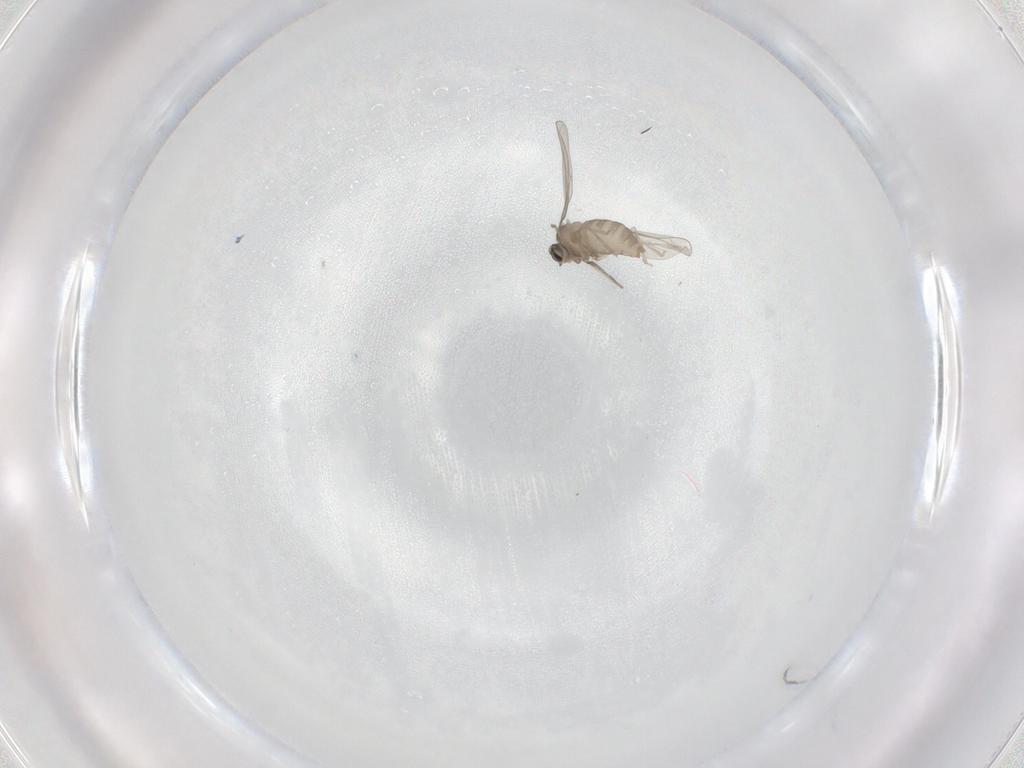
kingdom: Animalia
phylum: Arthropoda
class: Insecta
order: Diptera
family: Cecidomyiidae
